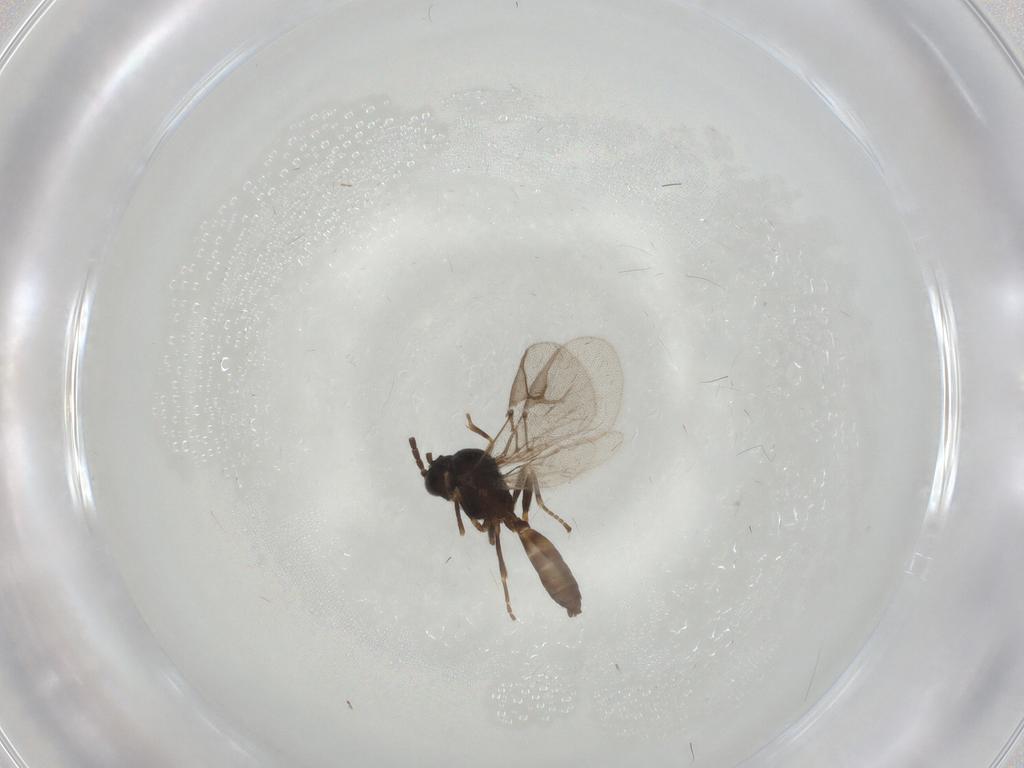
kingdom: Animalia
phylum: Arthropoda
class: Insecta
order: Hymenoptera
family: Braconidae
